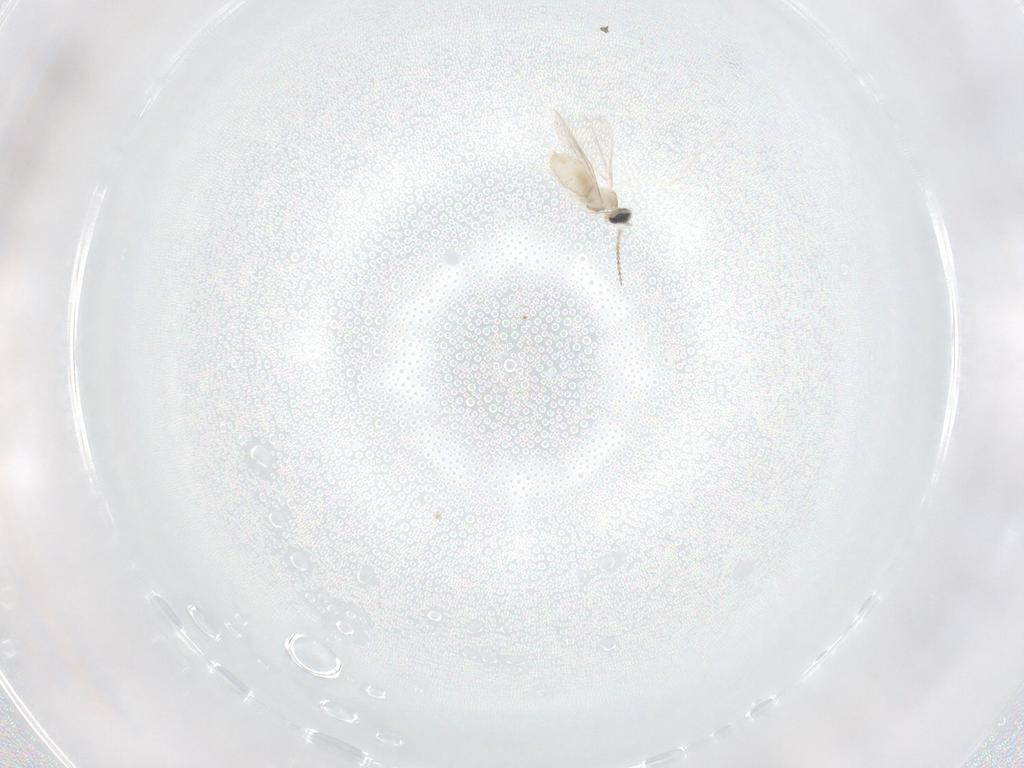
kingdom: Animalia
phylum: Arthropoda
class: Insecta
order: Diptera
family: Cecidomyiidae
